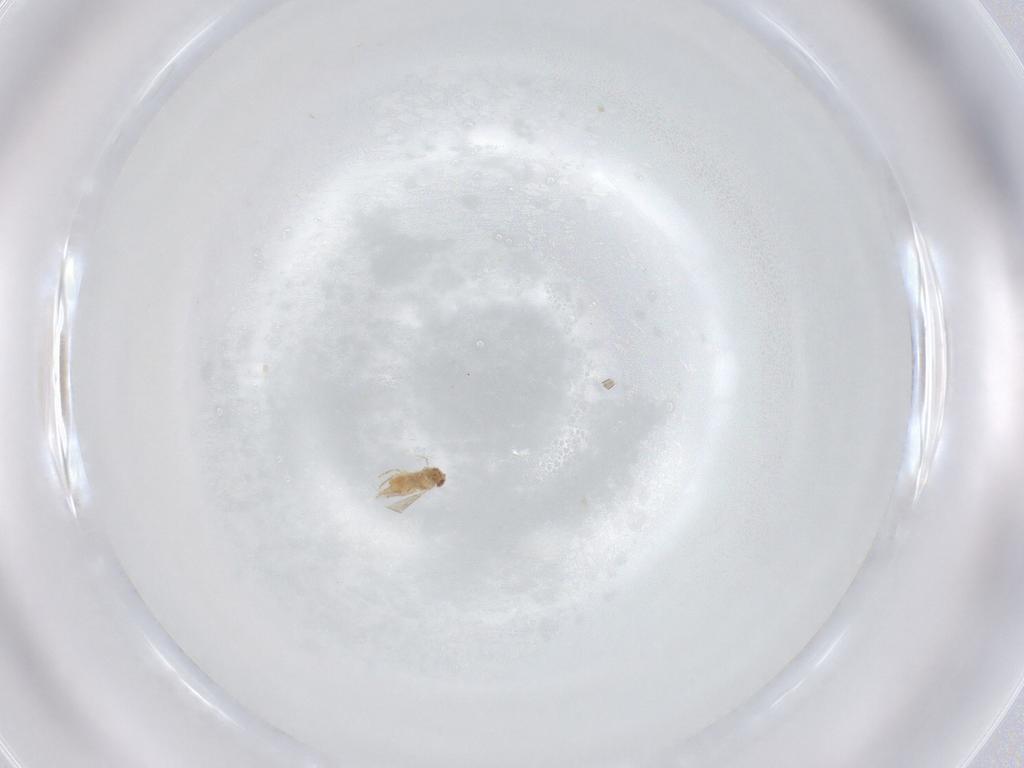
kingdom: Animalia
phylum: Arthropoda
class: Insecta
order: Hymenoptera
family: Aphelinidae
